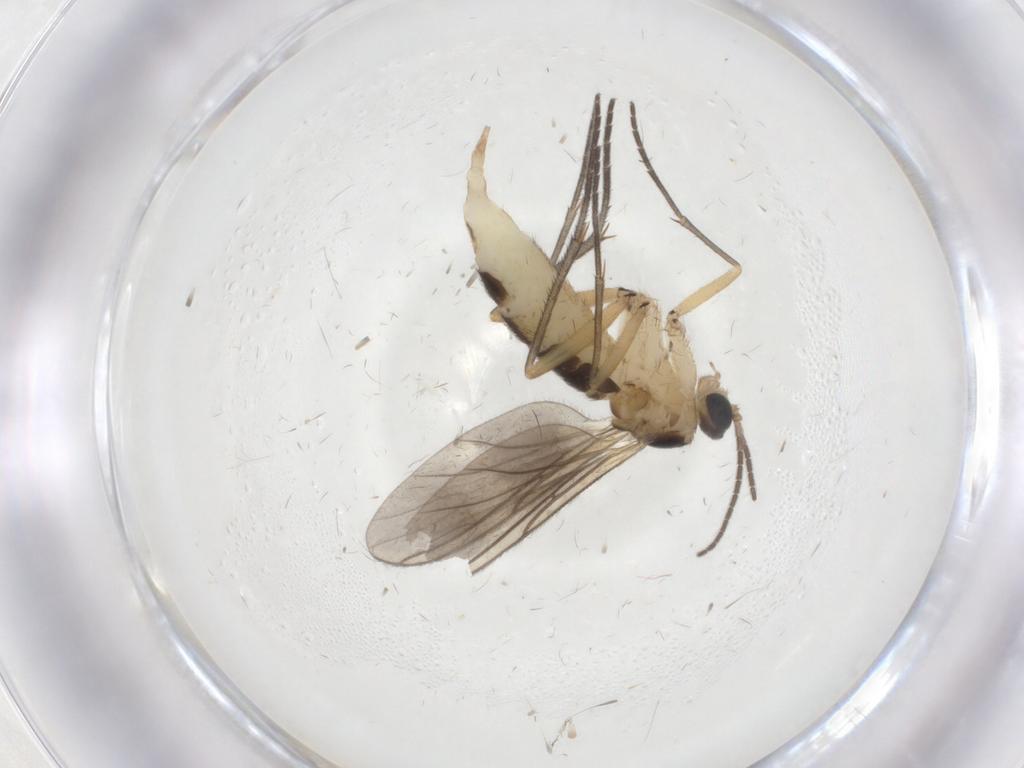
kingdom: Animalia
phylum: Arthropoda
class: Insecta
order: Diptera
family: Sciaridae
